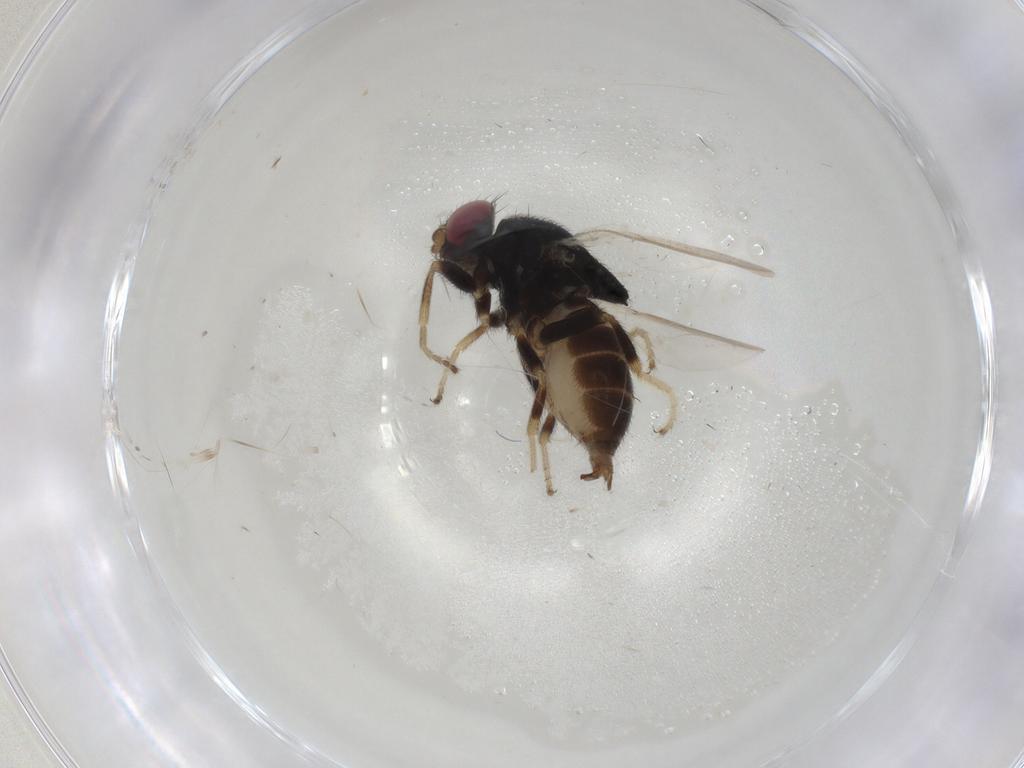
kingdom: Animalia
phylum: Arthropoda
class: Insecta
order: Diptera
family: Chloropidae
